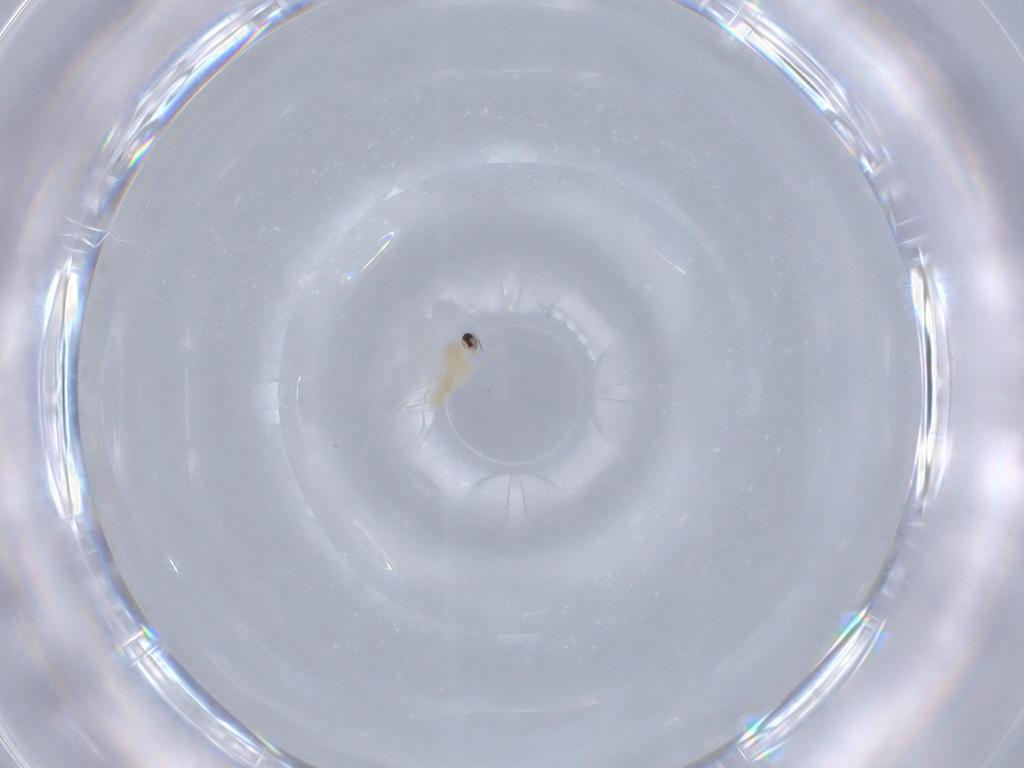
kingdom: Animalia
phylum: Arthropoda
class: Insecta
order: Diptera
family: Cecidomyiidae
